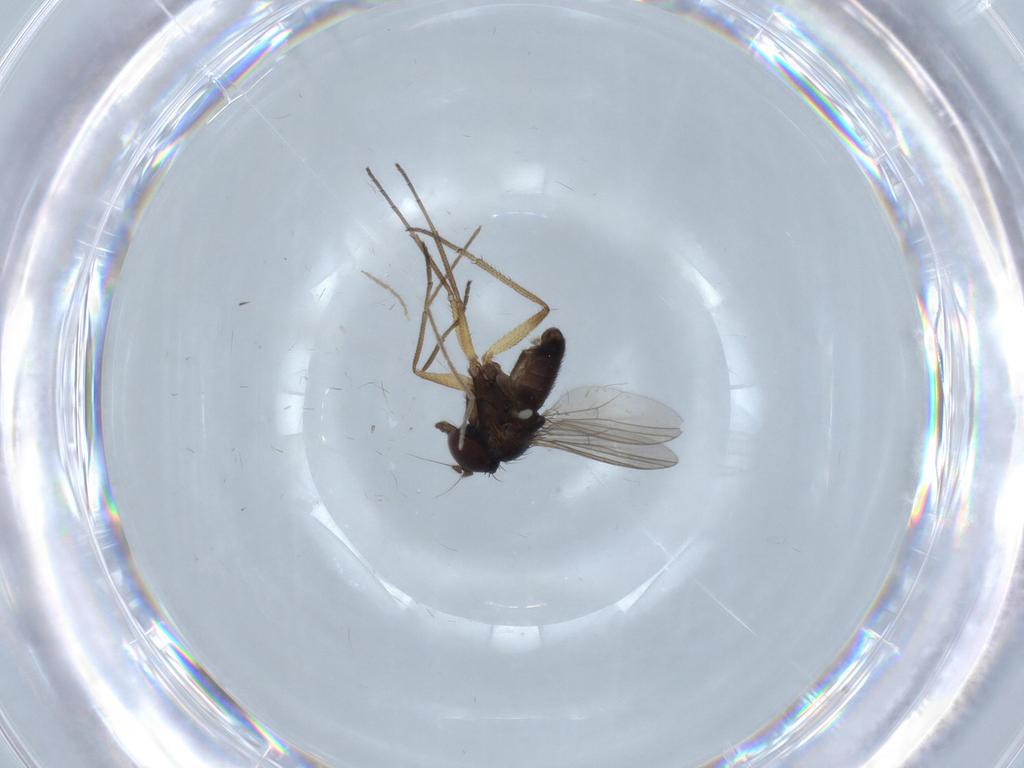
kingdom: Animalia
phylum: Arthropoda
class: Insecta
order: Diptera
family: Dolichopodidae
